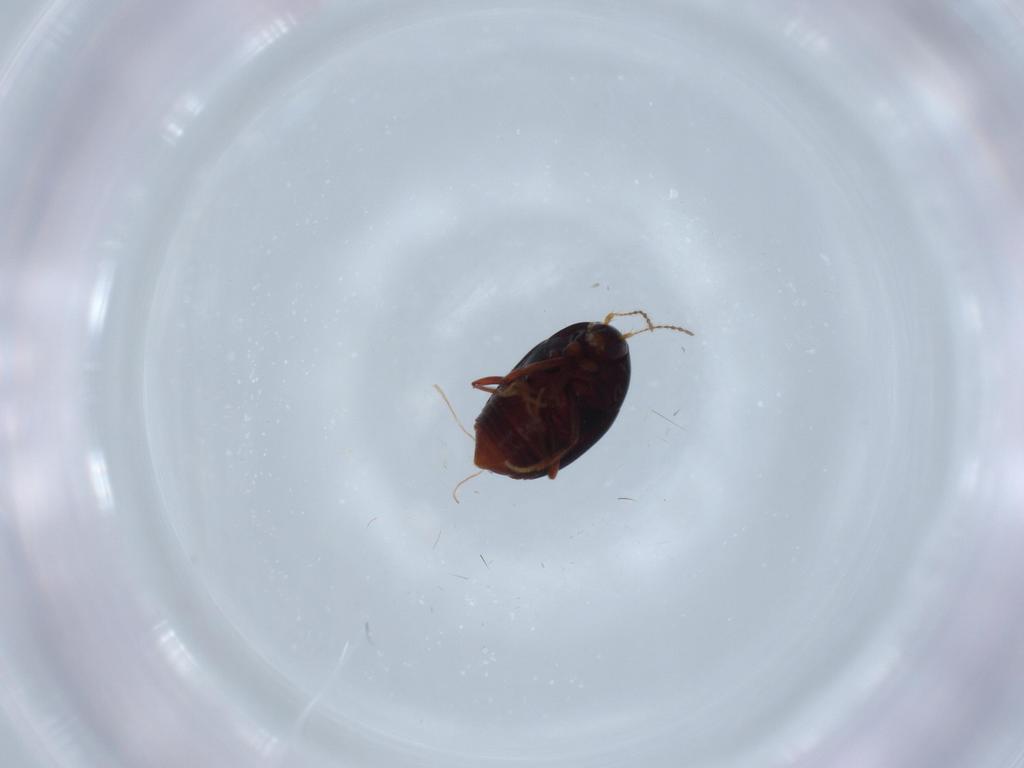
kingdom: Animalia
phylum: Arthropoda
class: Insecta
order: Coleoptera
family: Staphylinidae
